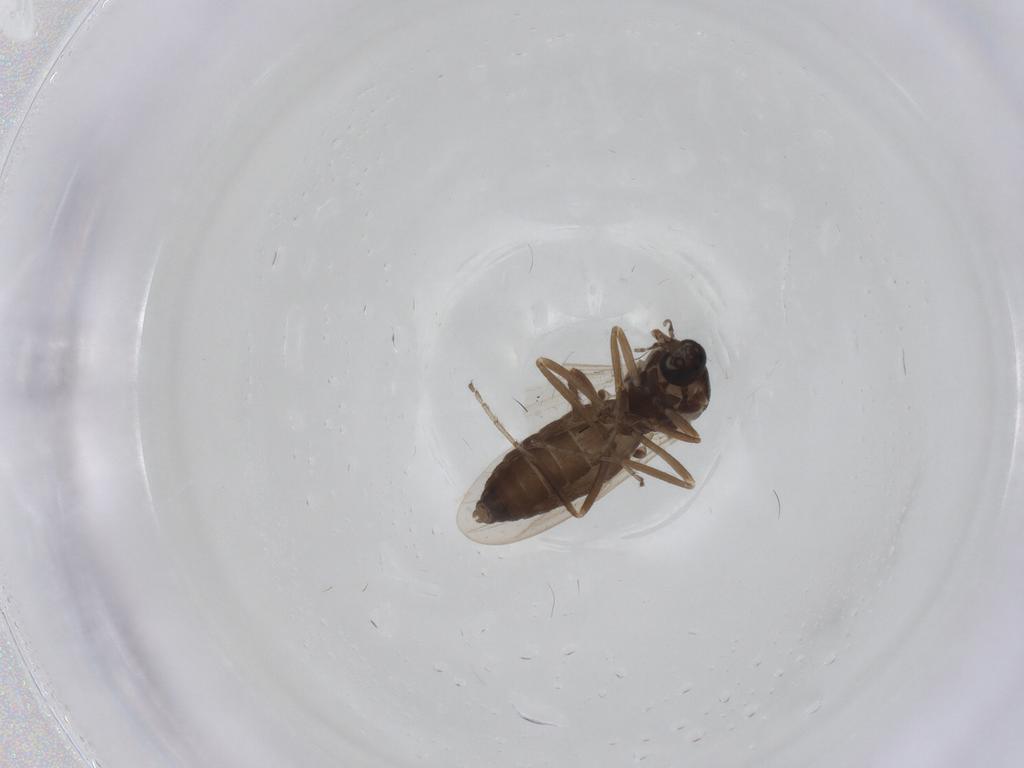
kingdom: Animalia
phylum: Arthropoda
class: Insecta
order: Diptera
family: Ceratopogonidae
